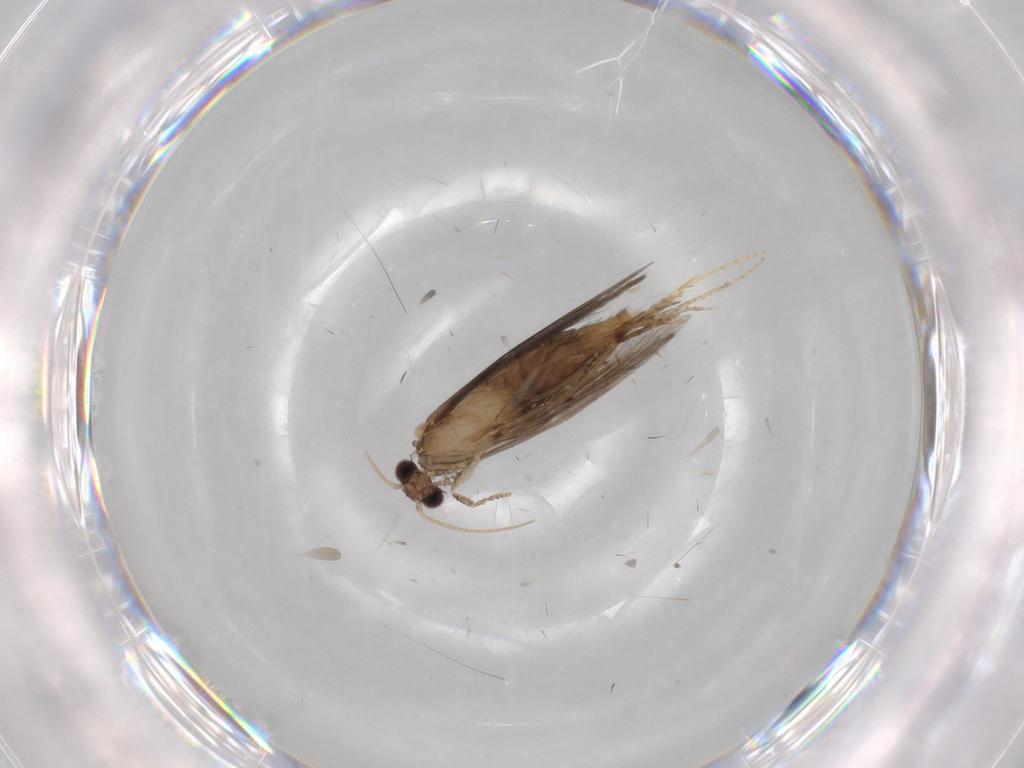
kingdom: Animalia
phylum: Arthropoda
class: Insecta
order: Trichoptera
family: Hydroptilidae
